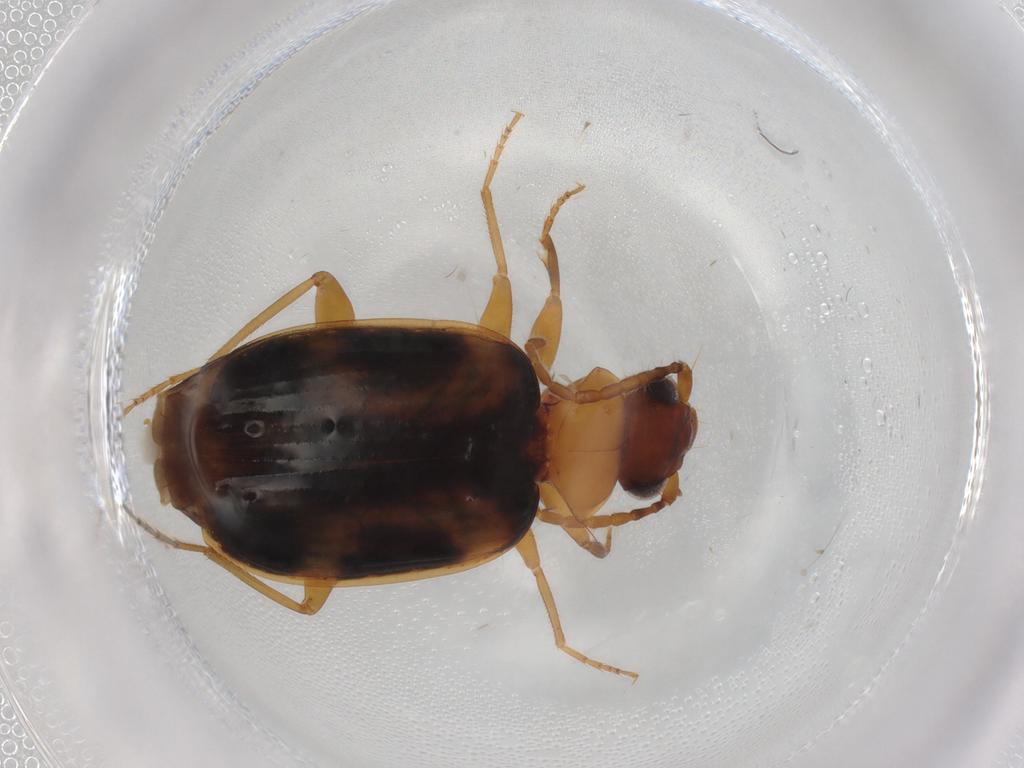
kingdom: Animalia
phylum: Arthropoda
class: Insecta
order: Coleoptera
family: Carabidae
